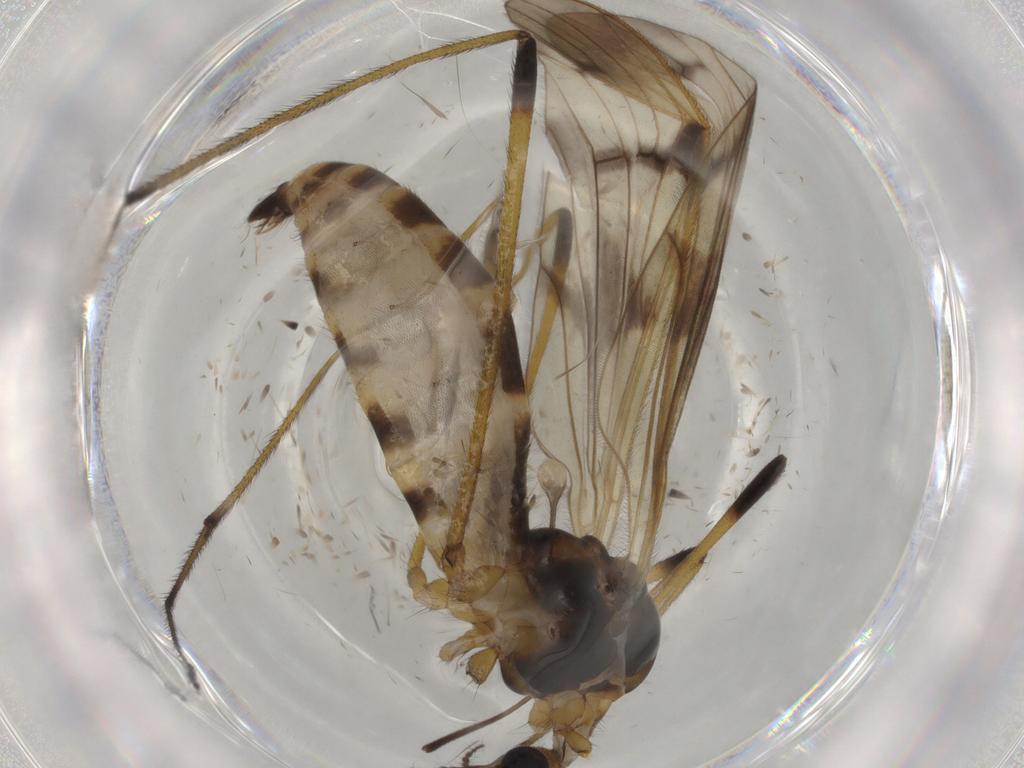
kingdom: Animalia
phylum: Arthropoda
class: Insecta
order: Diptera
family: Limoniidae
